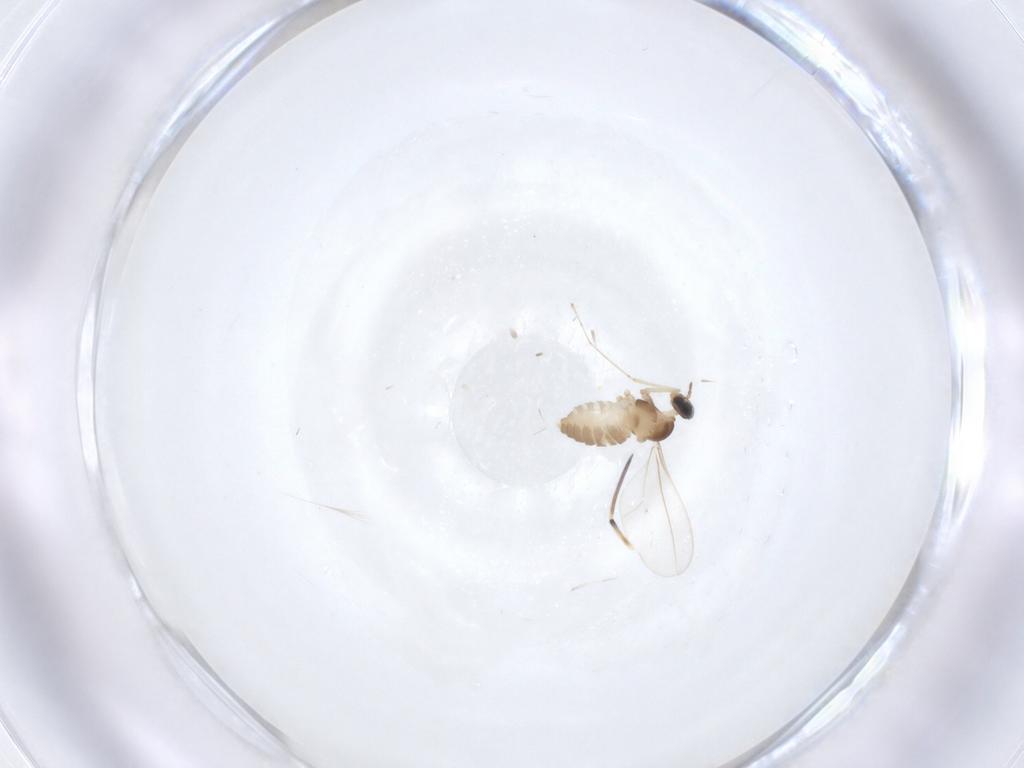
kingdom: Animalia
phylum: Arthropoda
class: Insecta
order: Diptera
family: Cecidomyiidae
